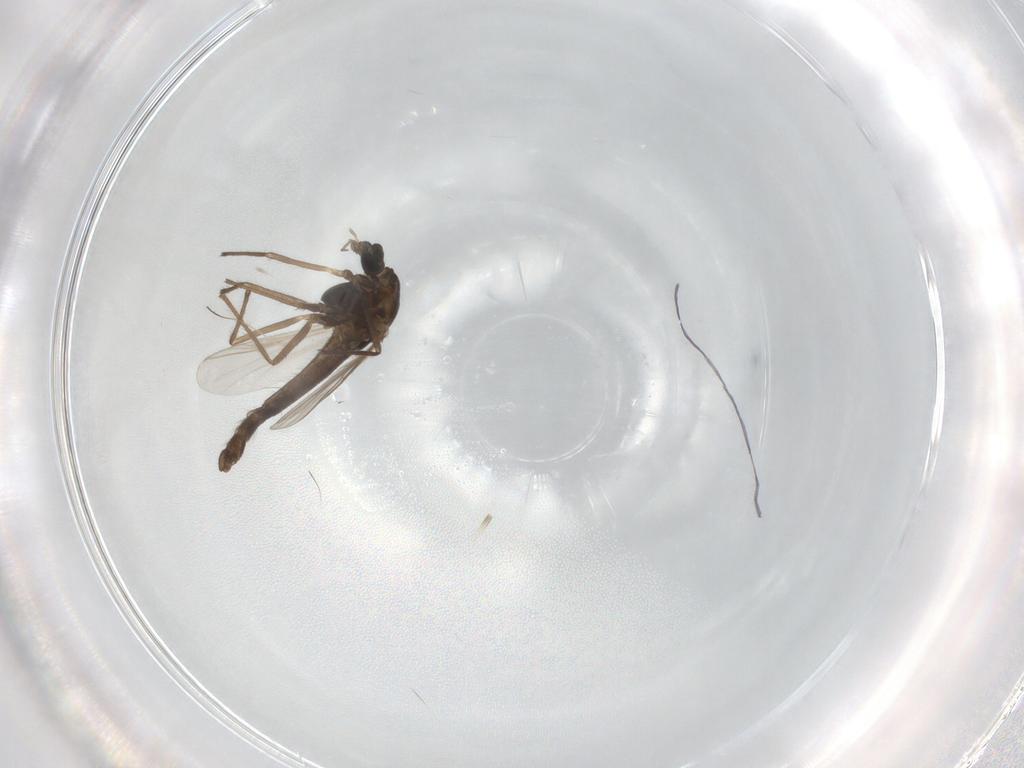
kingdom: Animalia
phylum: Arthropoda
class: Insecta
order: Diptera
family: Chironomidae
